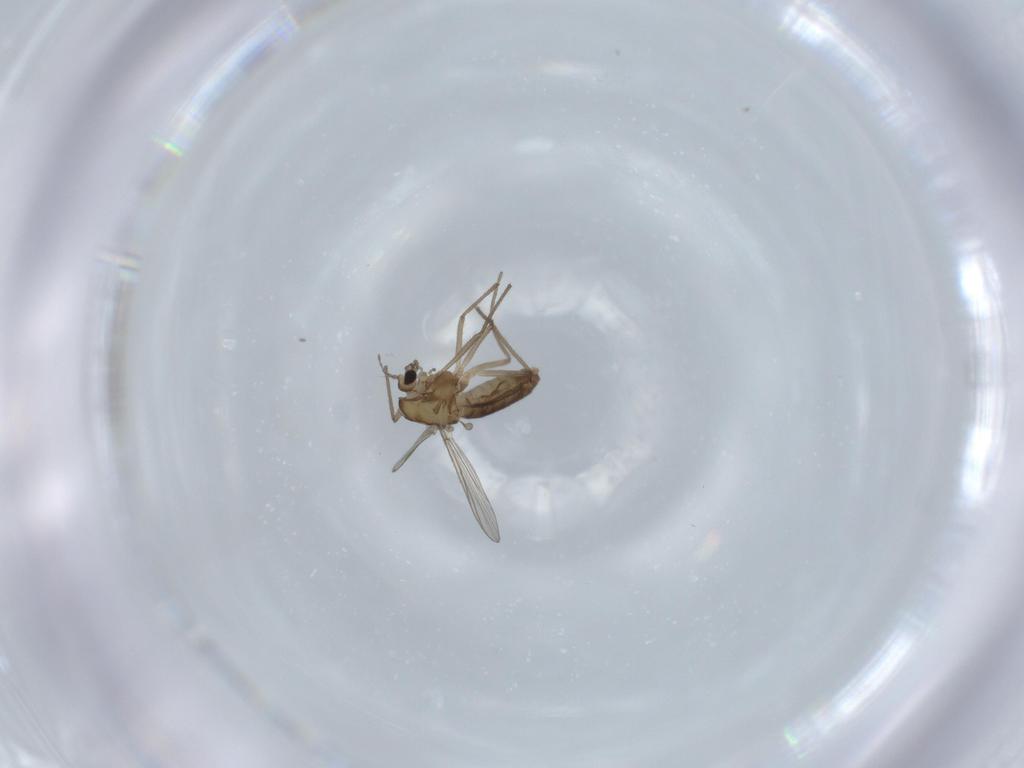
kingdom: Animalia
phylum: Arthropoda
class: Insecta
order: Diptera
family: Chironomidae
